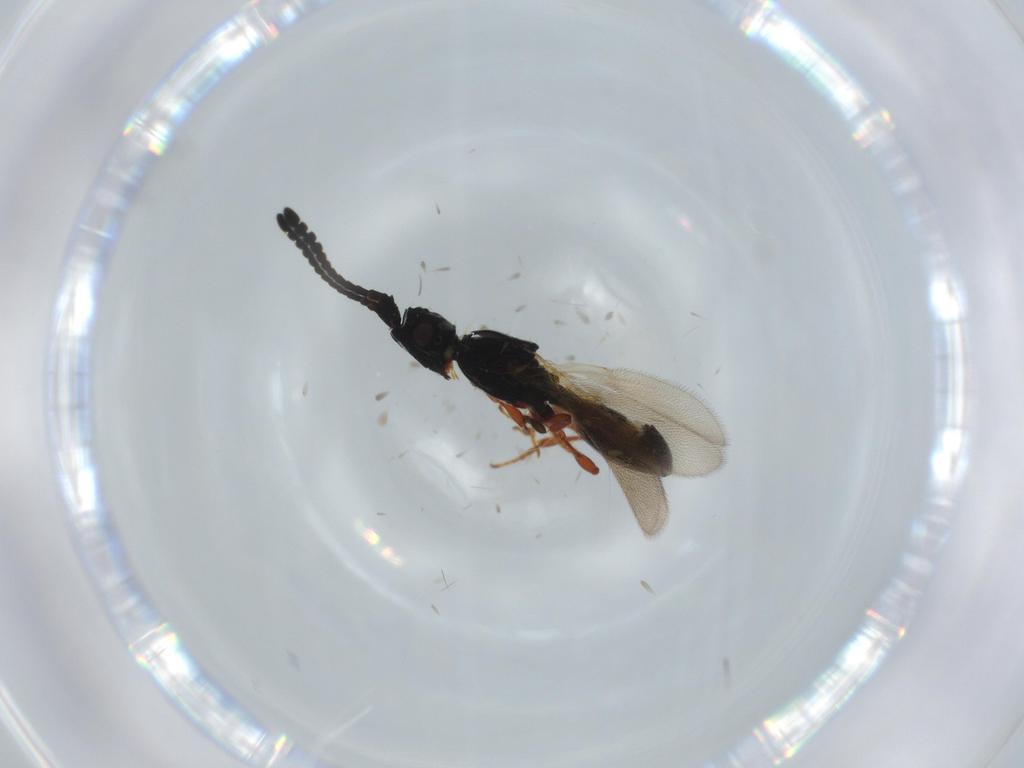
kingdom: Animalia
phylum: Arthropoda
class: Insecta
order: Hymenoptera
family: Diapriidae
